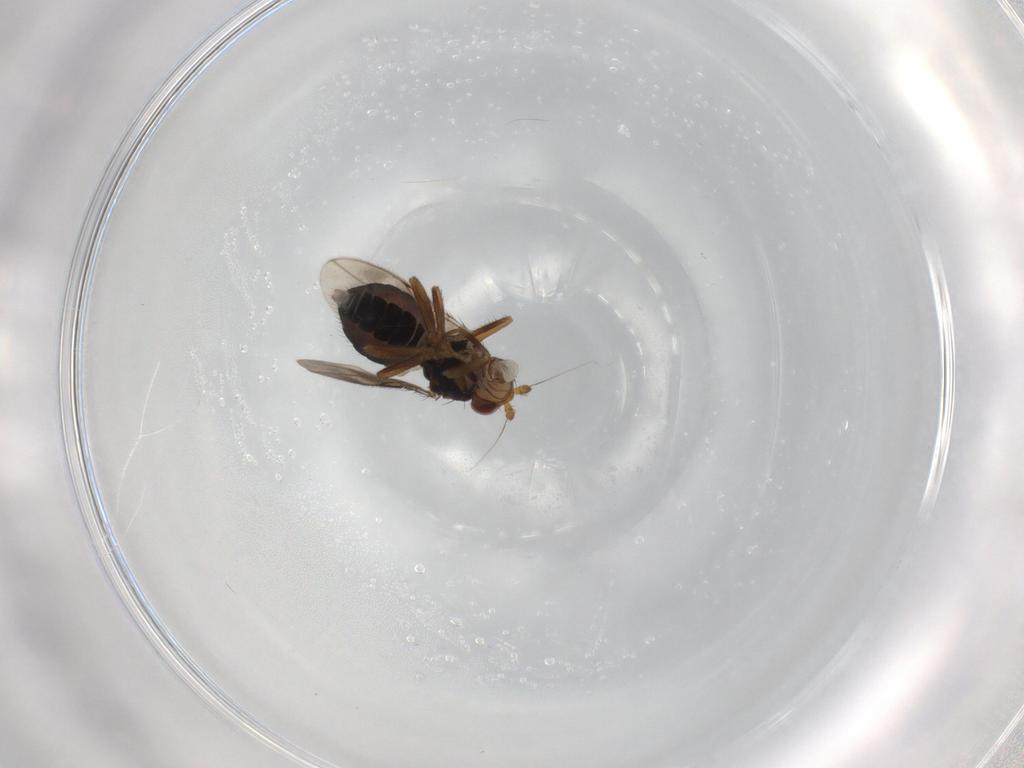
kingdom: Animalia
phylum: Arthropoda
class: Insecta
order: Diptera
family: Sphaeroceridae
